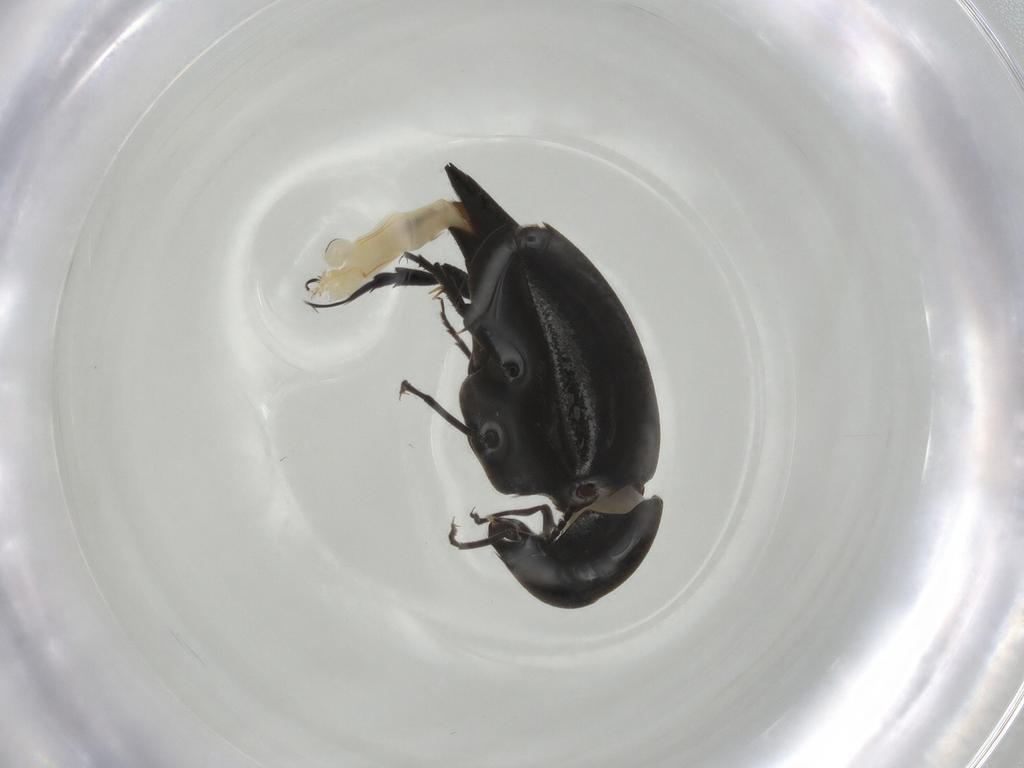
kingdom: Animalia
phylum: Arthropoda
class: Insecta
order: Coleoptera
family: Mordellidae
